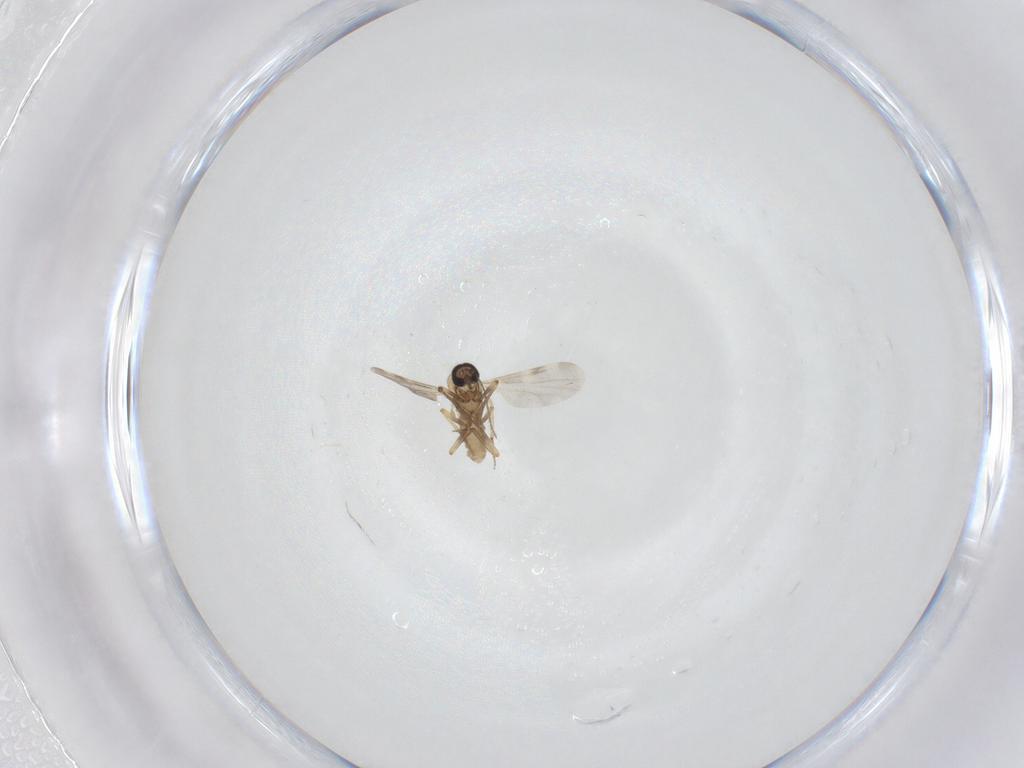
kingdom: Animalia
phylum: Arthropoda
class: Insecta
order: Diptera
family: Ceratopogonidae
